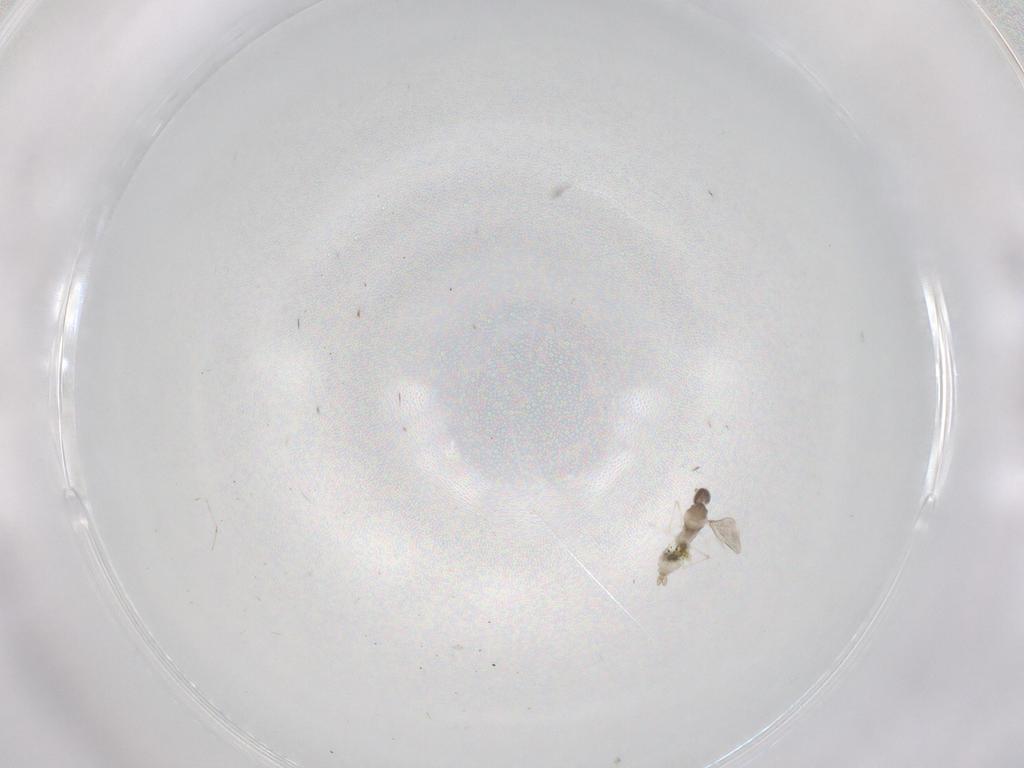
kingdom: Animalia
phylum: Arthropoda
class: Insecta
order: Diptera
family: Cecidomyiidae
